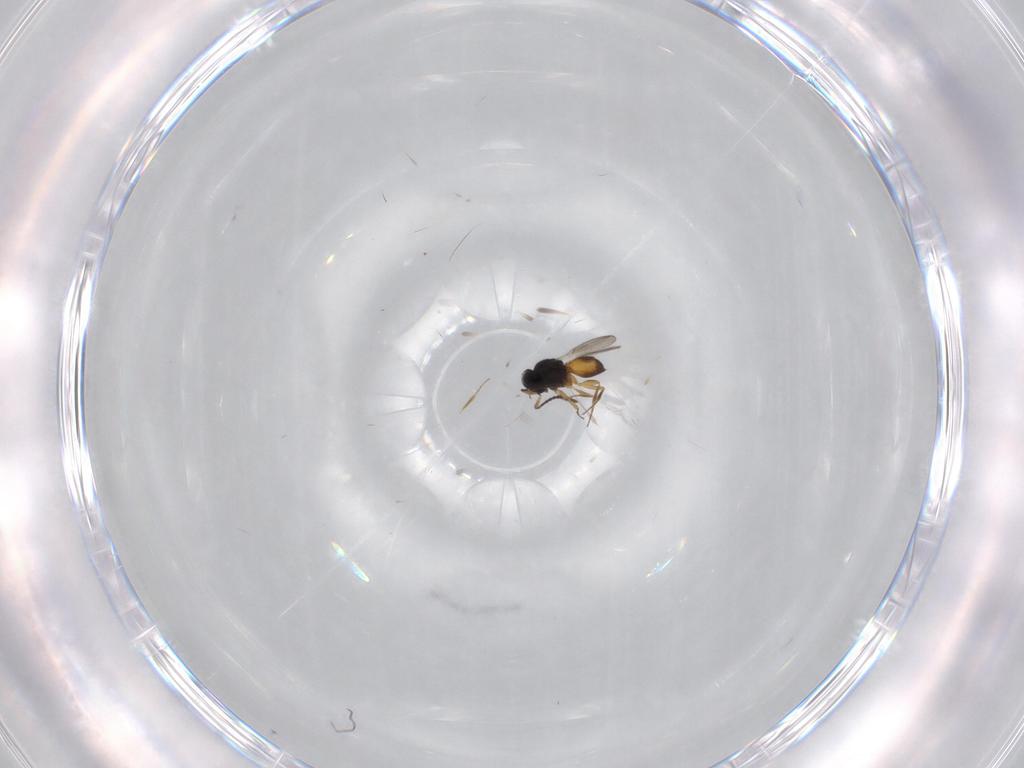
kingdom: Animalia
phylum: Arthropoda
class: Insecta
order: Hymenoptera
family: Scelionidae
